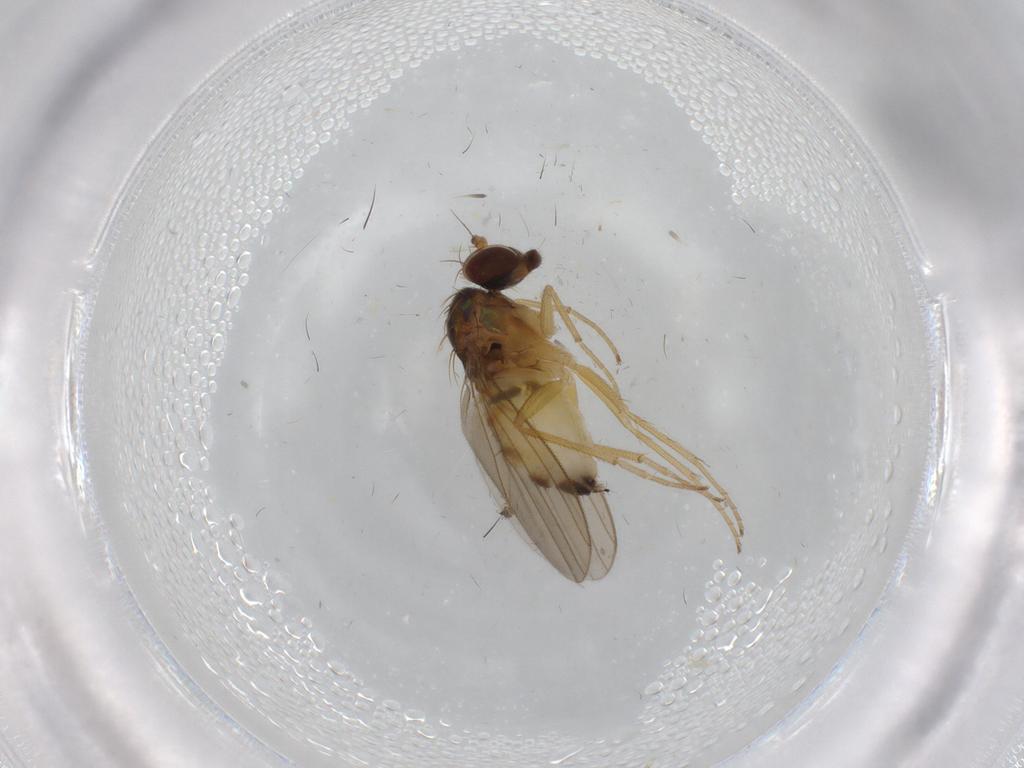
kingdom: Animalia
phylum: Arthropoda
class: Insecta
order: Diptera
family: Dolichopodidae
